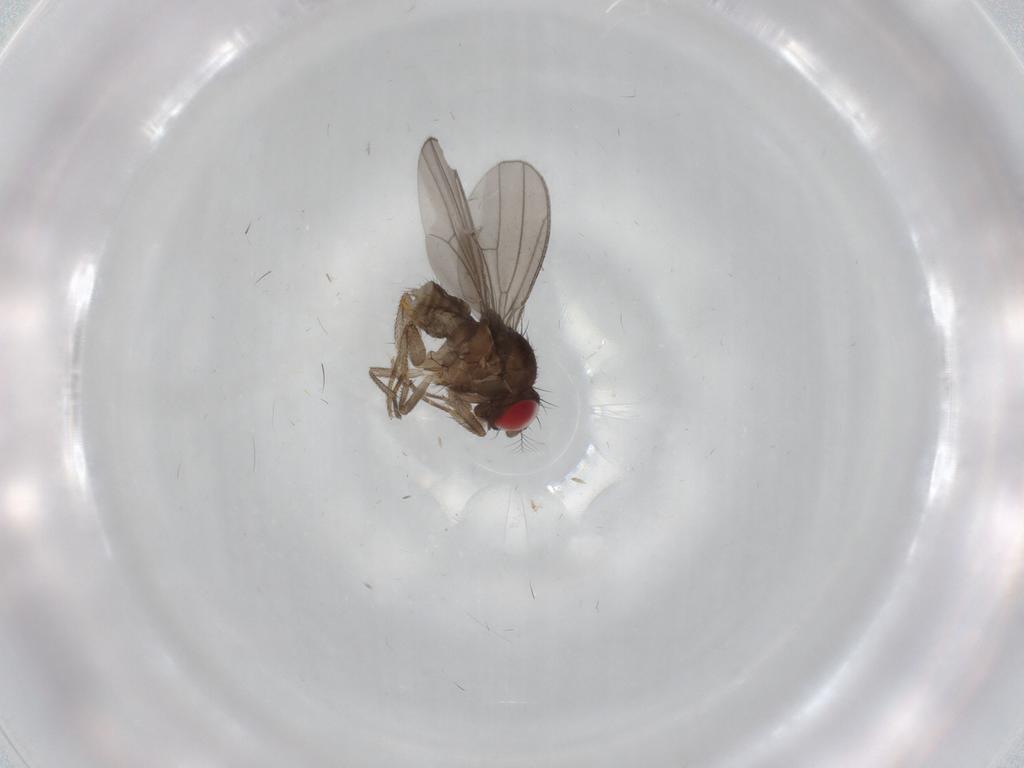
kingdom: Animalia
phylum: Arthropoda
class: Insecta
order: Diptera
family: Drosophilidae
